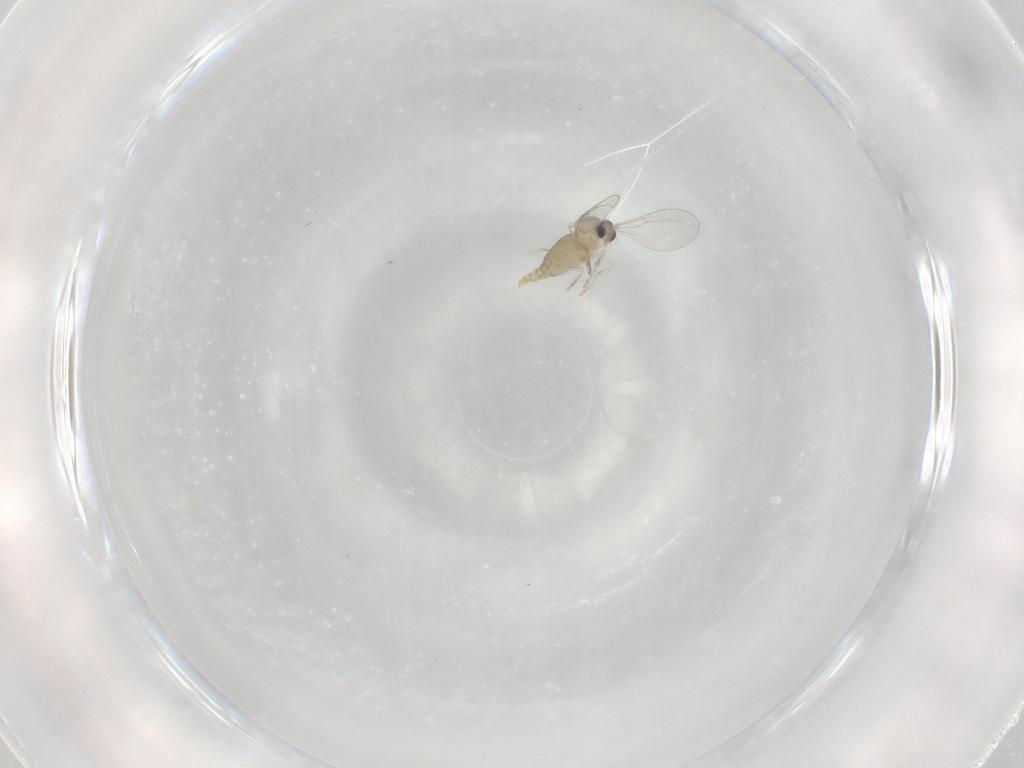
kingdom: Animalia
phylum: Arthropoda
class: Insecta
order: Diptera
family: Cecidomyiidae
